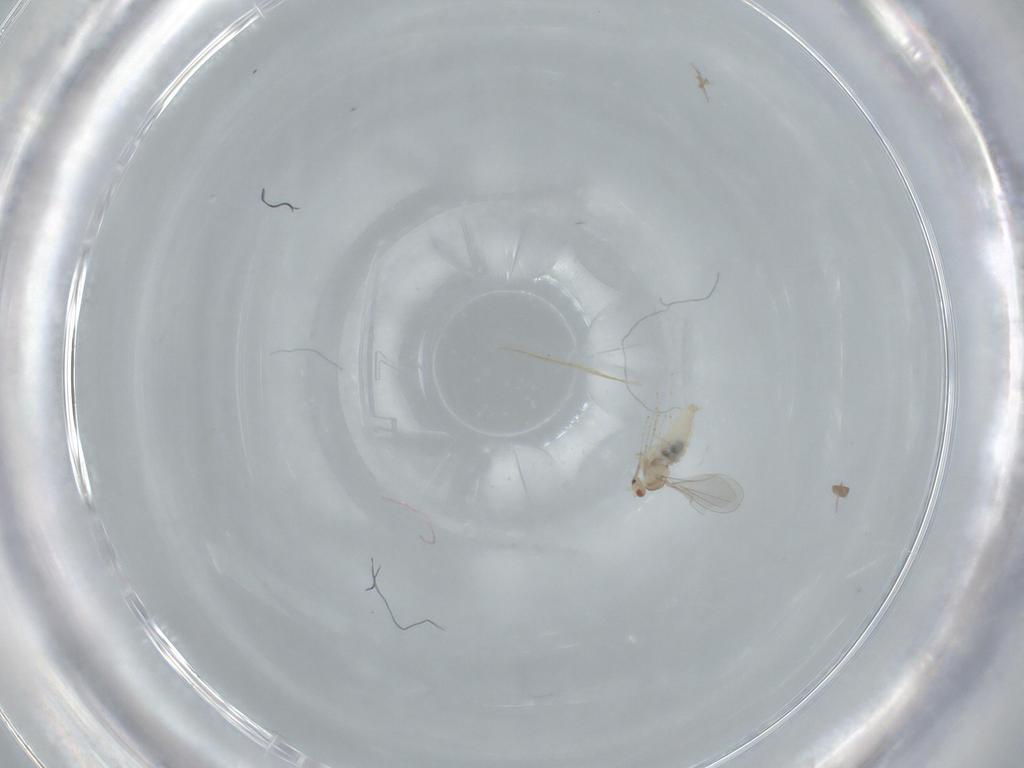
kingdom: Animalia
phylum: Arthropoda
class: Insecta
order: Diptera
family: Cecidomyiidae
